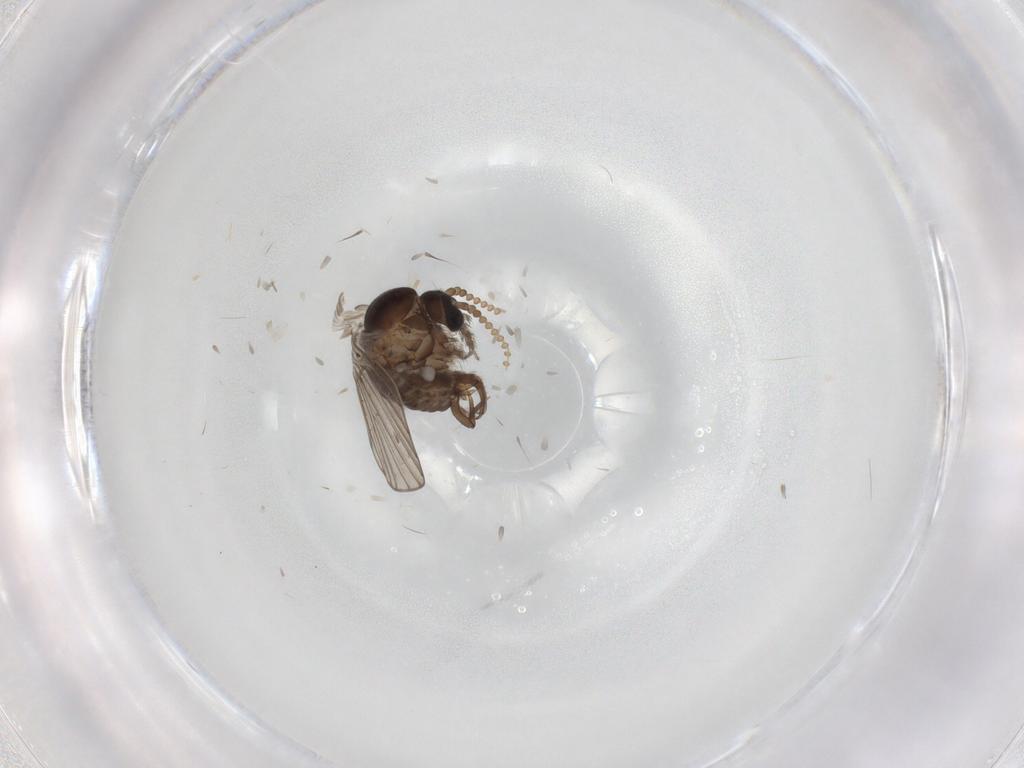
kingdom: Animalia
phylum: Arthropoda
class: Insecta
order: Diptera
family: Psychodidae
